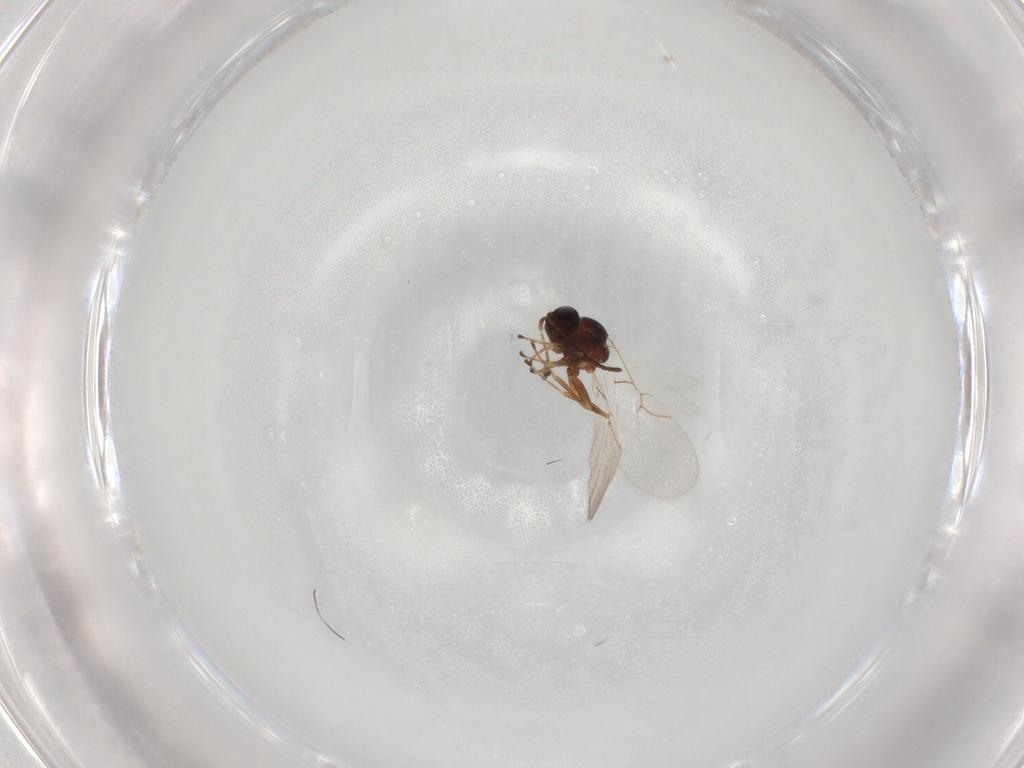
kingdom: Animalia
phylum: Arthropoda
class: Insecta
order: Hymenoptera
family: Figitidae
